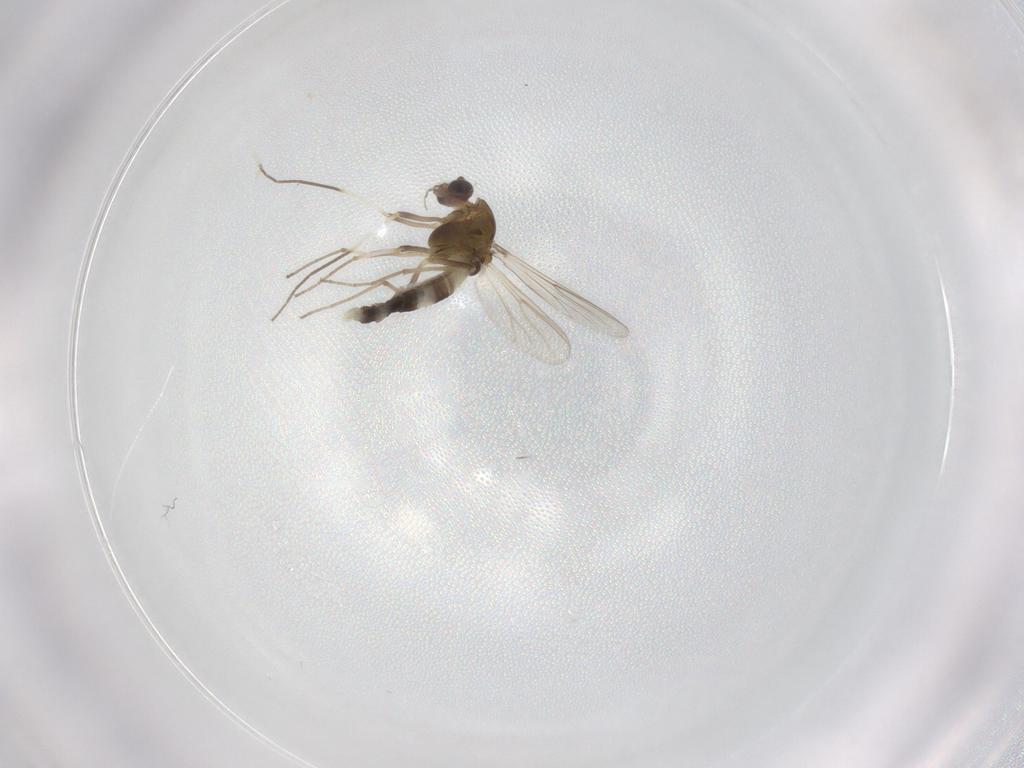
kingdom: Animalia
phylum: Arthropoda
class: Insecta
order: Diptera
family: Chironomidae
